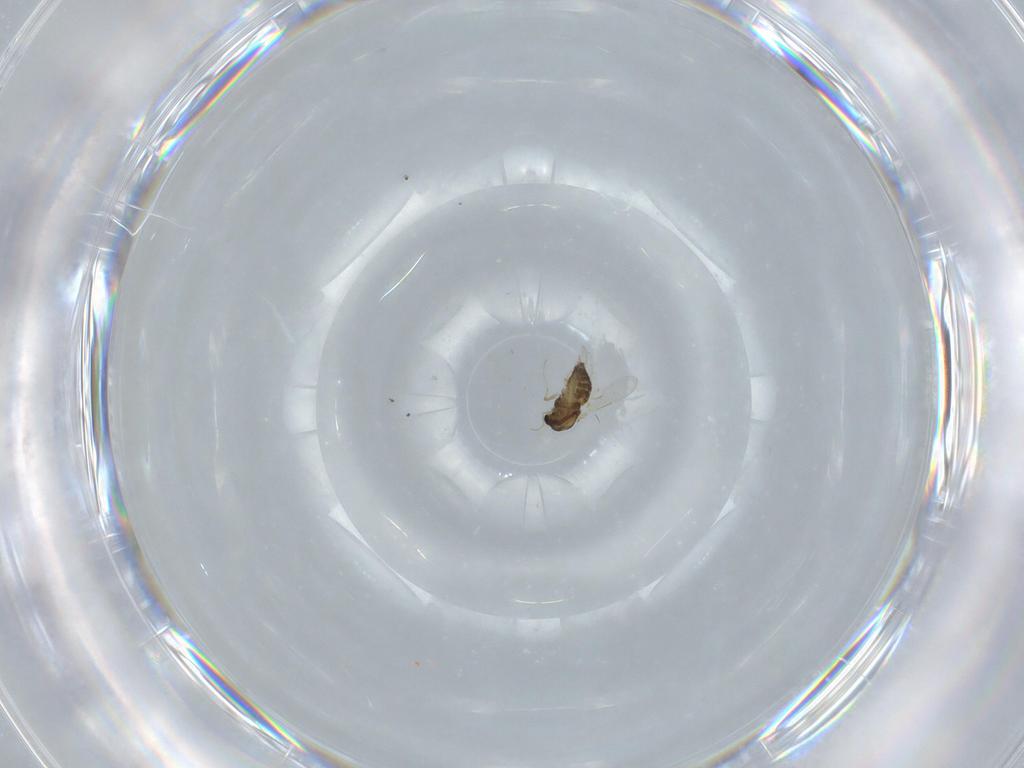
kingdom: Animalia
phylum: Arthropoda
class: Insecta
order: Diptera
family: Chironomidae
